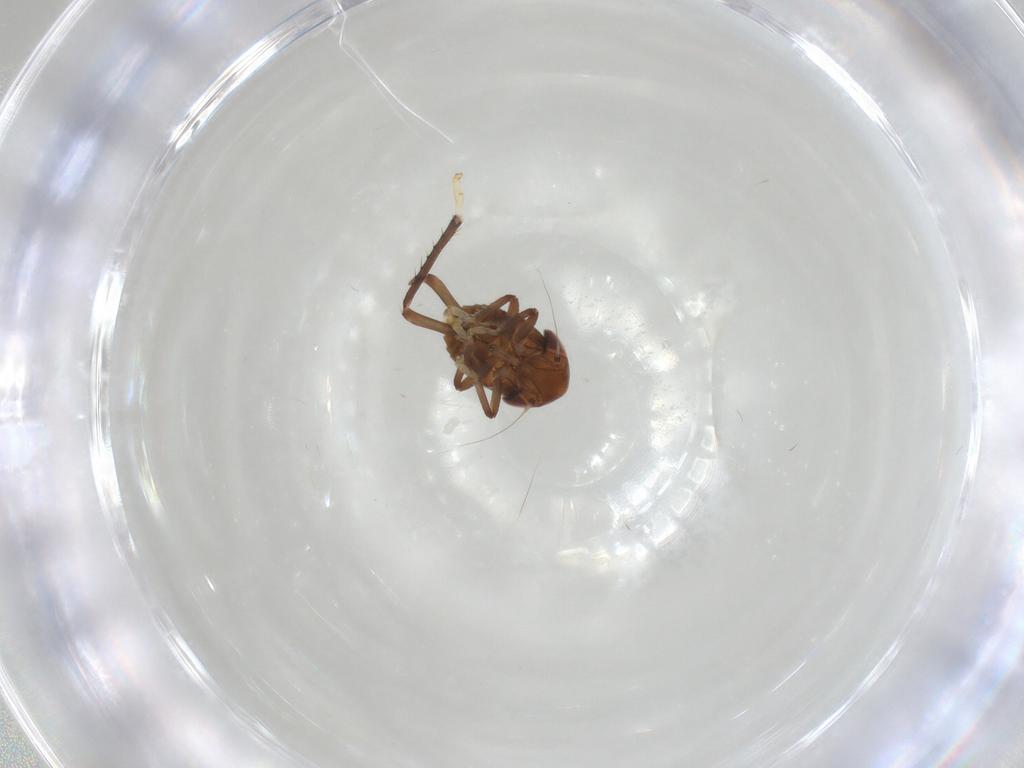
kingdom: Animalia
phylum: Arthropoda
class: Insecta
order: Hemiptera
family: Cicadellidae
